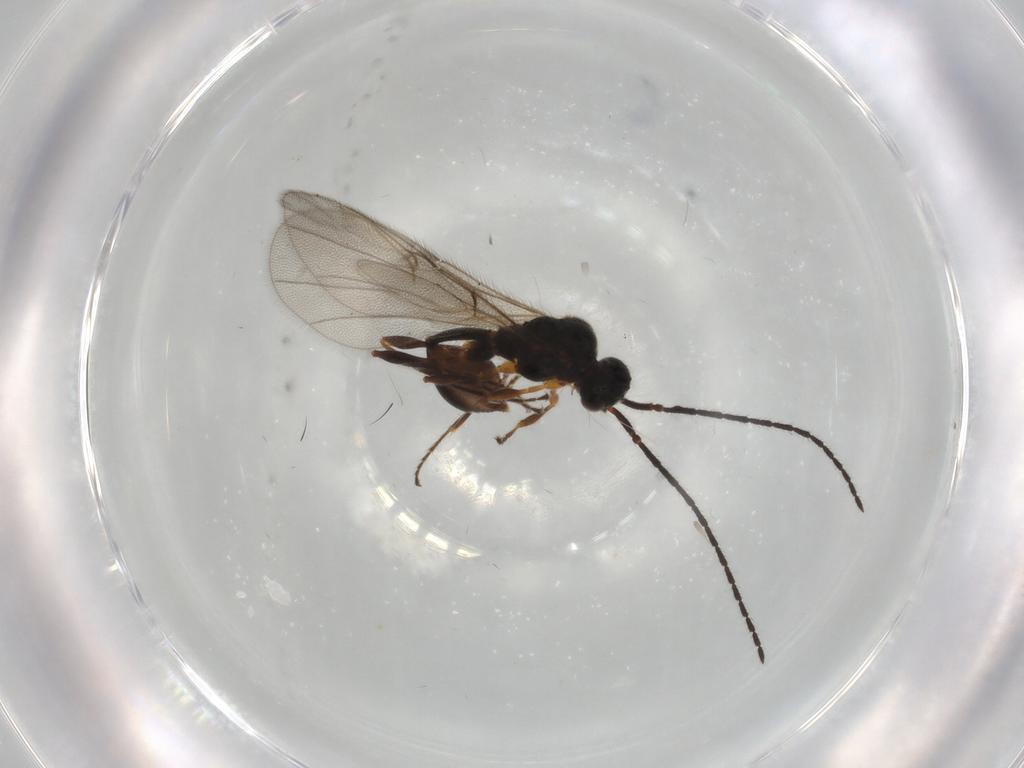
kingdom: Animalia
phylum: Arthropoda
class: Insecta
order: Hymenoptera
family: Diapriidae
